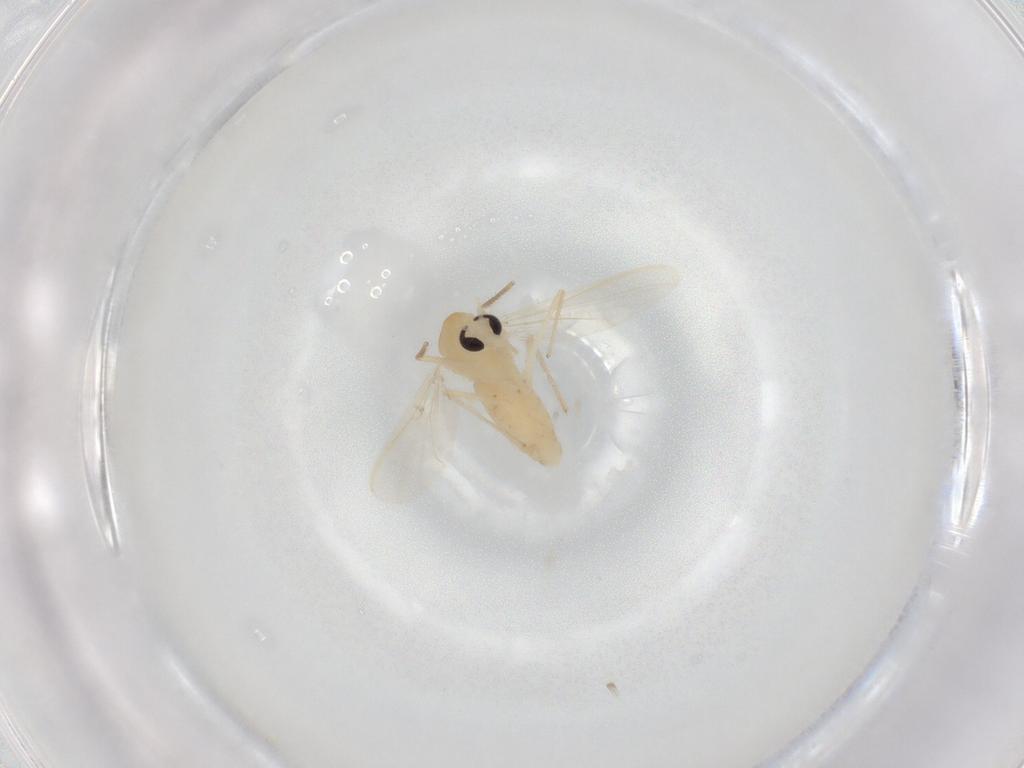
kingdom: Animalia
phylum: Arthropoda
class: Insecta
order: Diptera
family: Chironomidae
